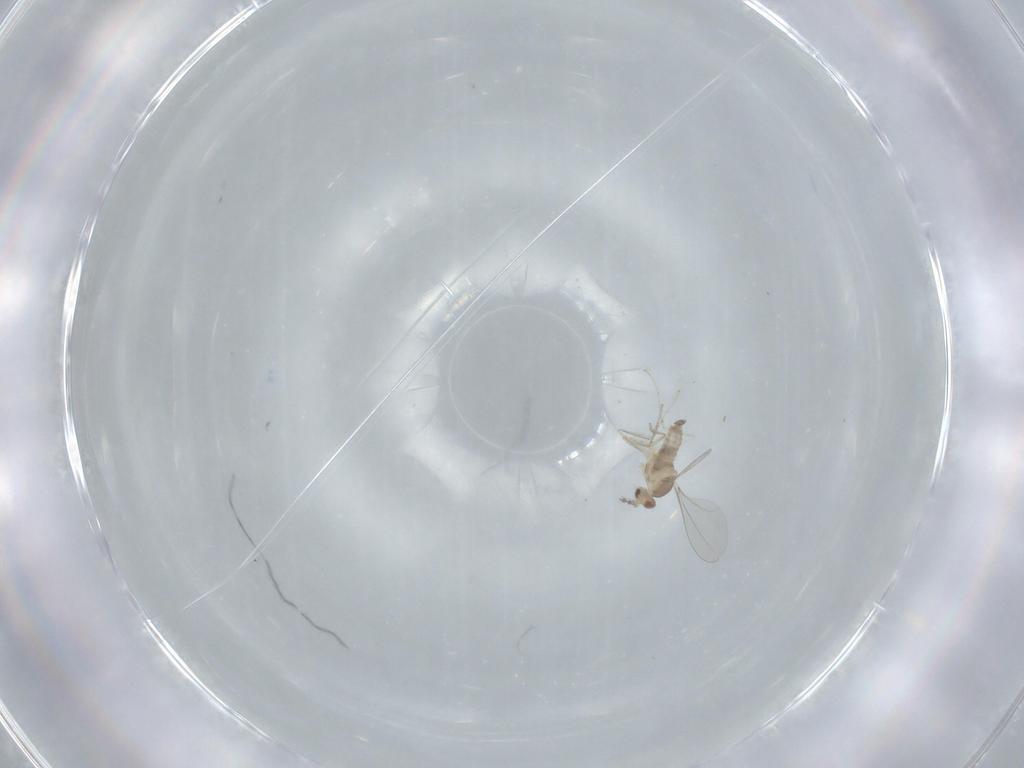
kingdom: Animalia
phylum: Arthropoda
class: Insecta
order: Diptera
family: Cecidomyiidae
